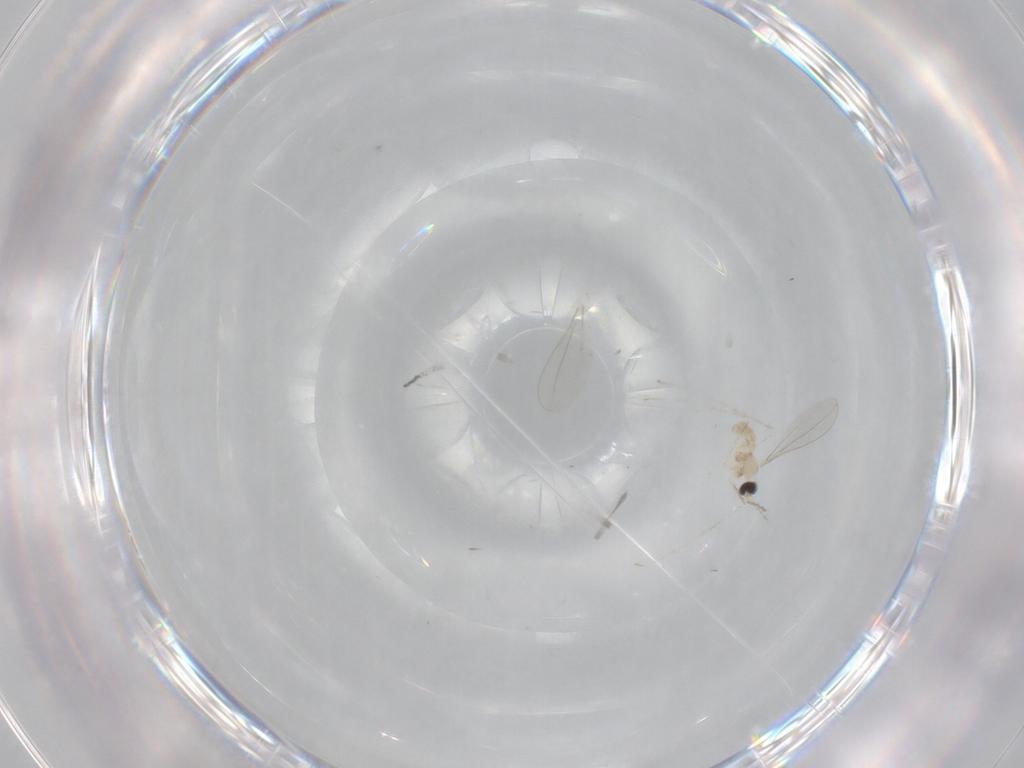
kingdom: Animalia
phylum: Arthropoda
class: Insecta
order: Diptera
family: Cecidomyiidae
